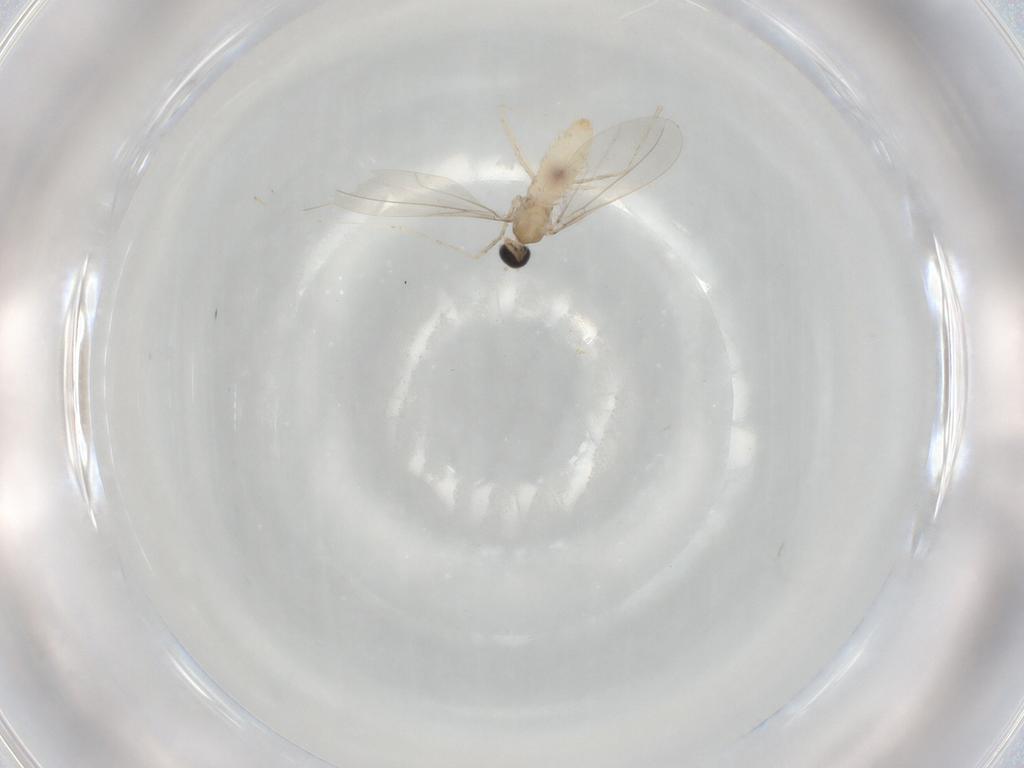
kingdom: Animalia
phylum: Arthropoda
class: Insecta
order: Diptera
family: Cecidomyiidae
